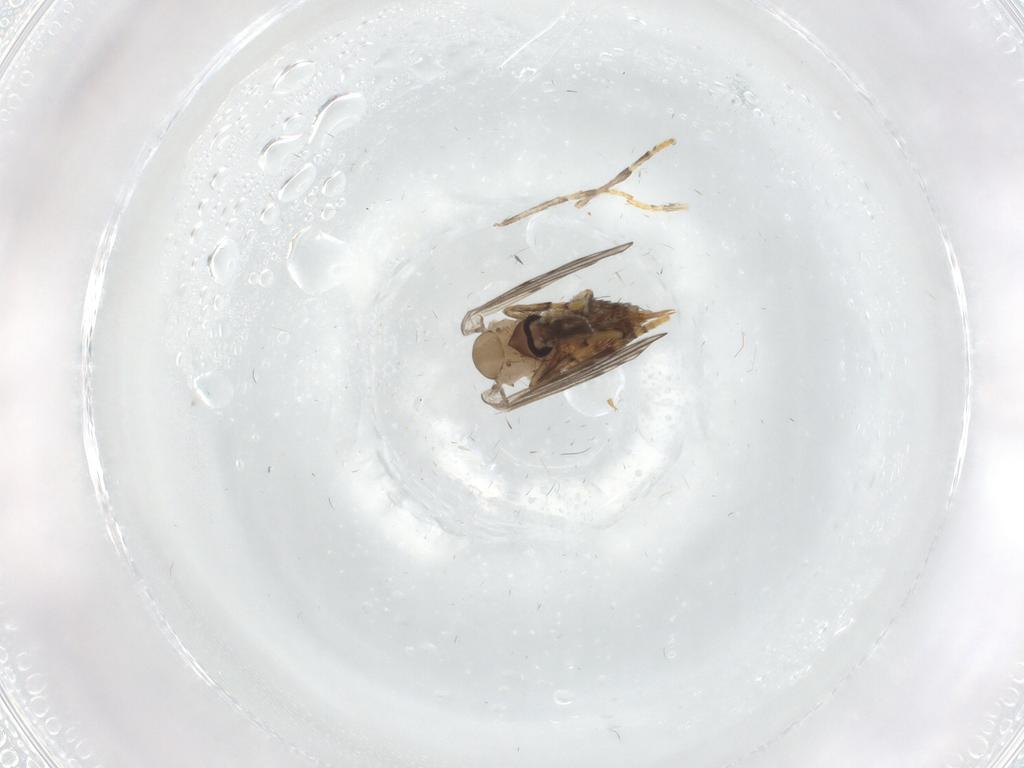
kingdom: Animalia
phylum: Arthropoda
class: Insecta
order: Diptera
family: Psychodidae
